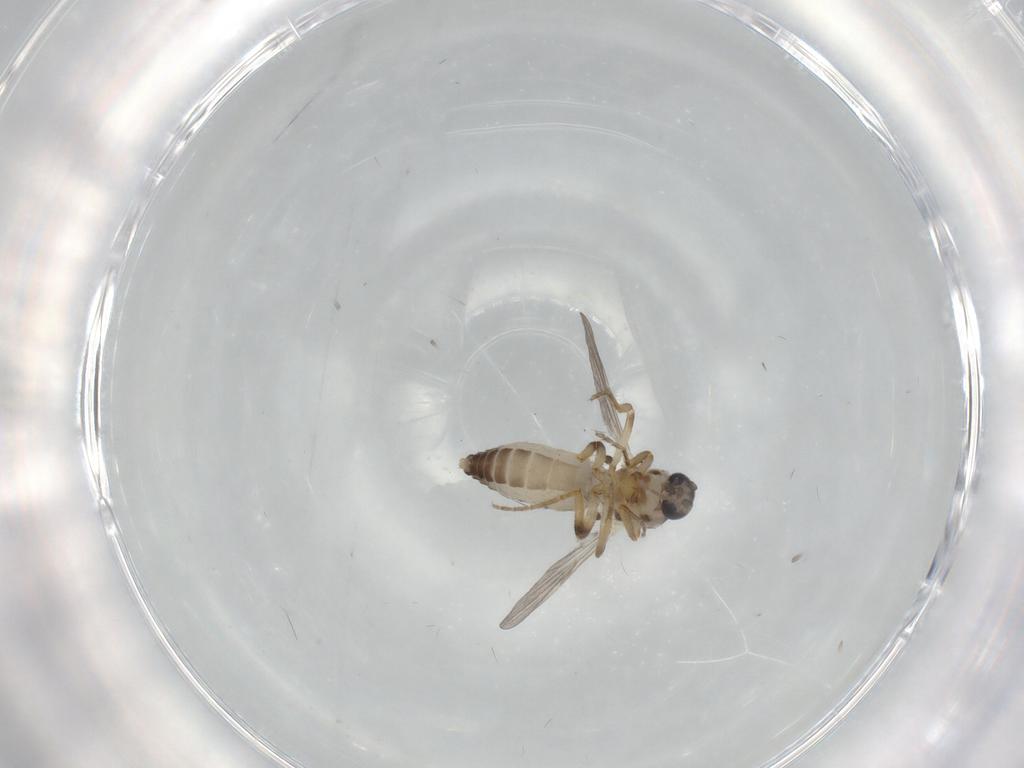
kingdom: Animalia
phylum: Arthropoda
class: Insecta
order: Diptera
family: Ceratopogonidae
